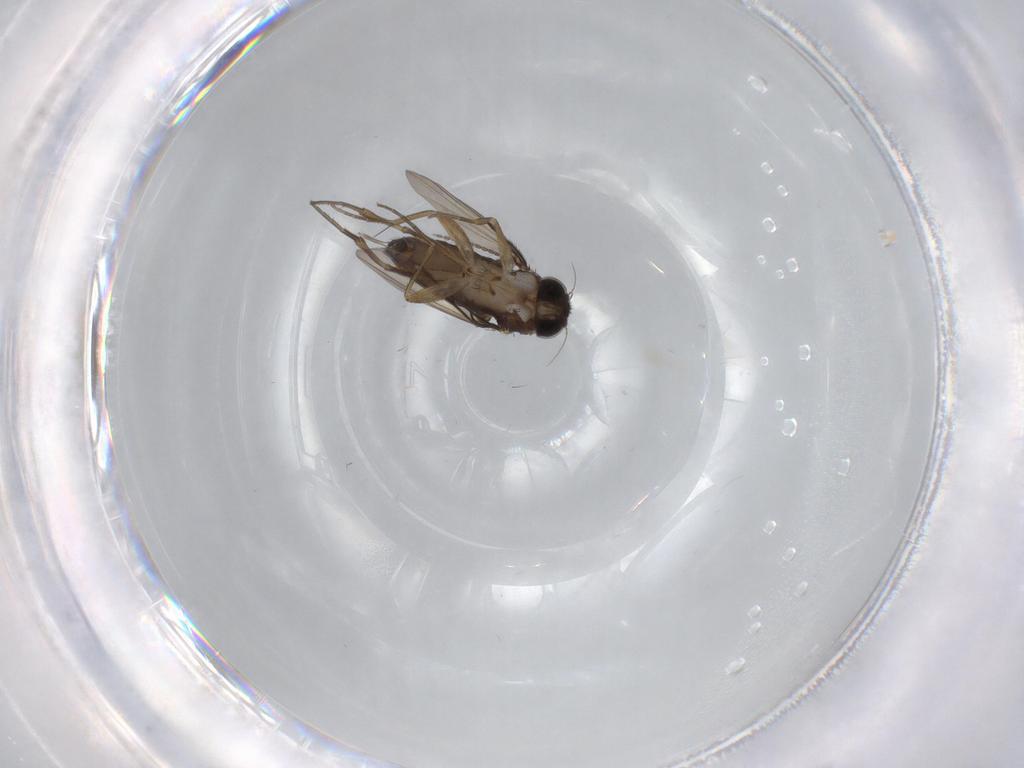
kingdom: Animalia
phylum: Arthropoda
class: Insecta
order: Diptera
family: Phoridae
